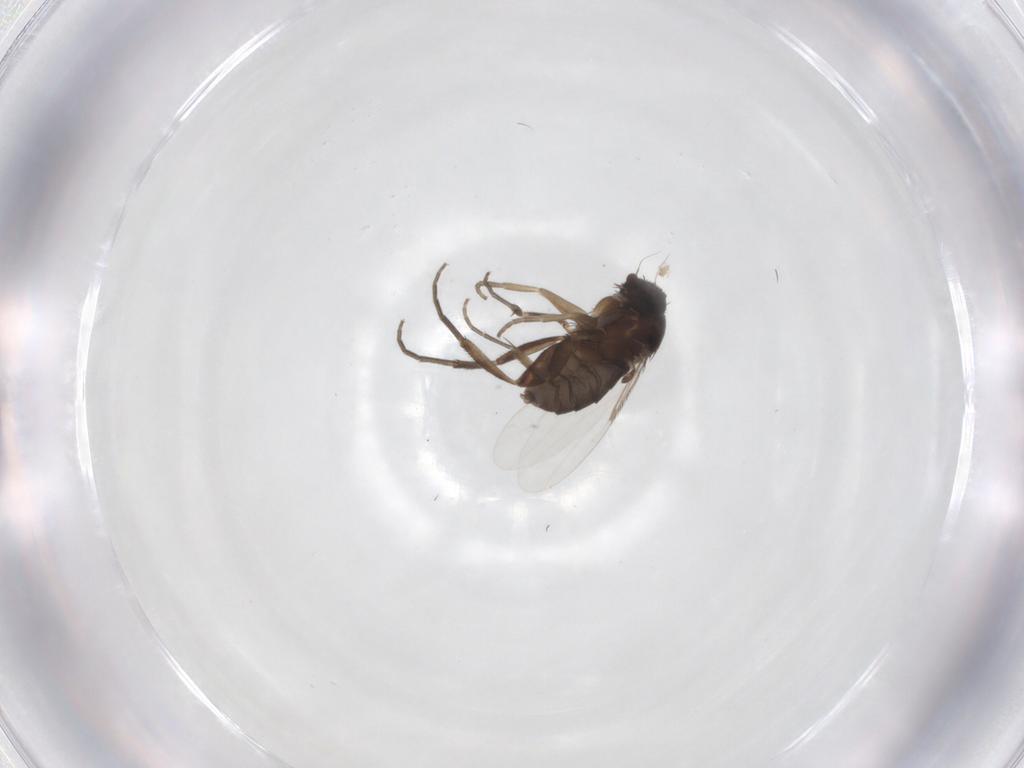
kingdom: Animalia
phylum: Arthropoda
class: Insecta
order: Diptera
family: Phoridae
